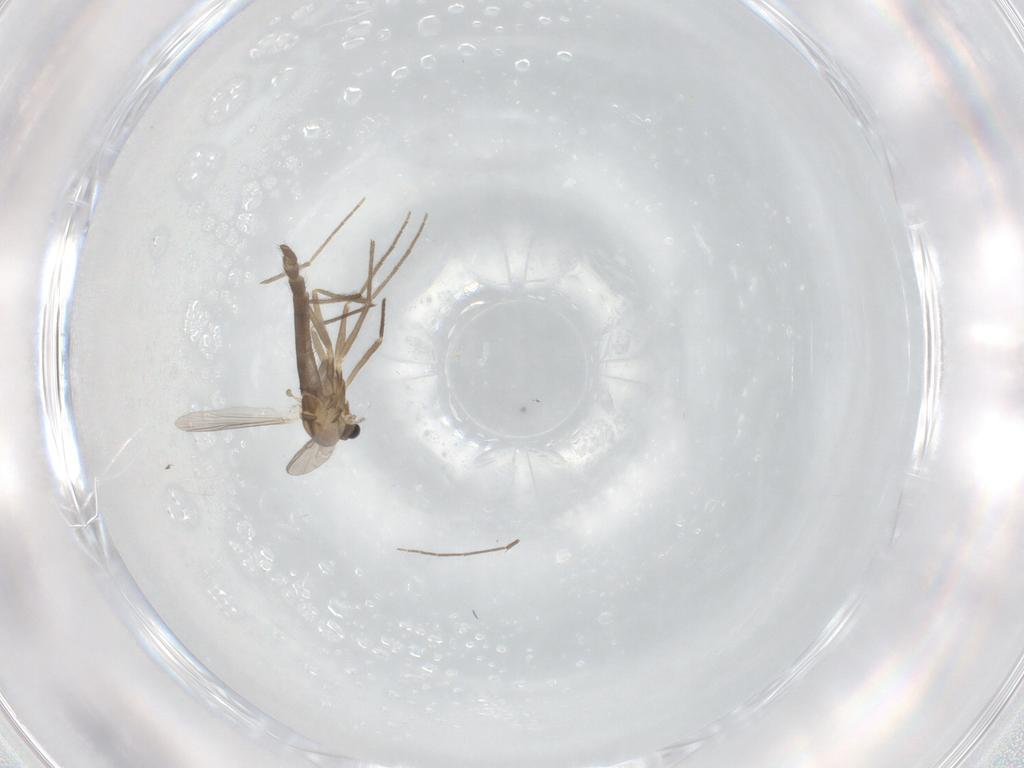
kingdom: Animalia
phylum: Arthropoda
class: Insecta
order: Diptera
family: Chironomidae
